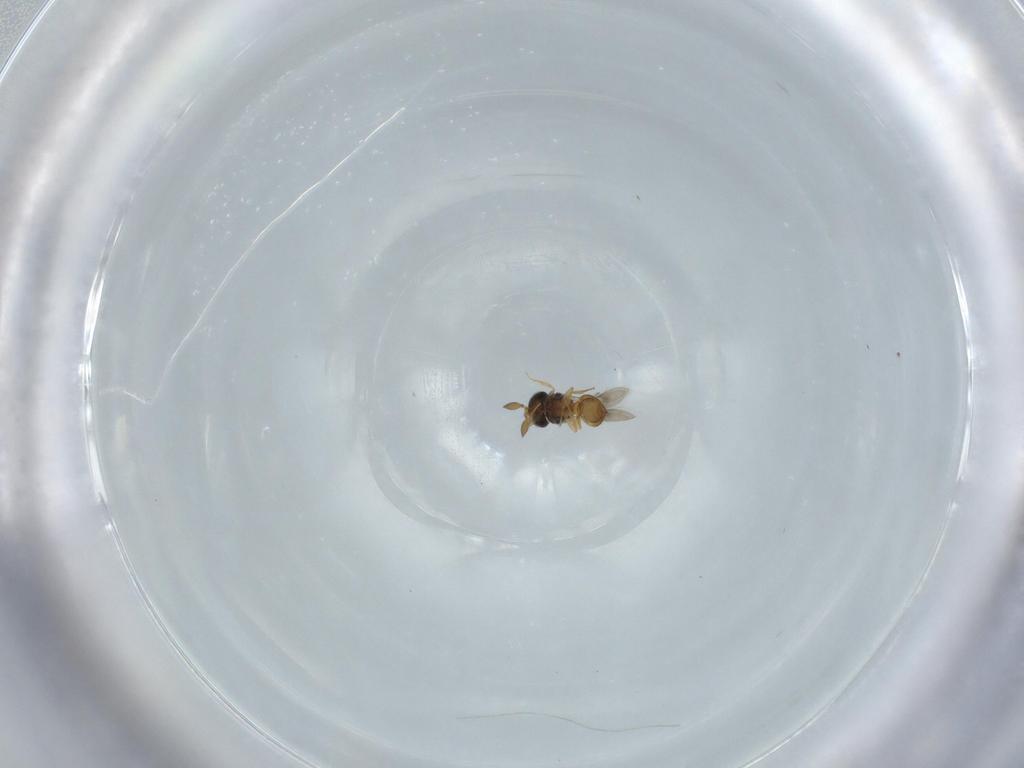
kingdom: Animalia
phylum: Arthropoda
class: Insecta
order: Hymenoptera
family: Scelionidae
